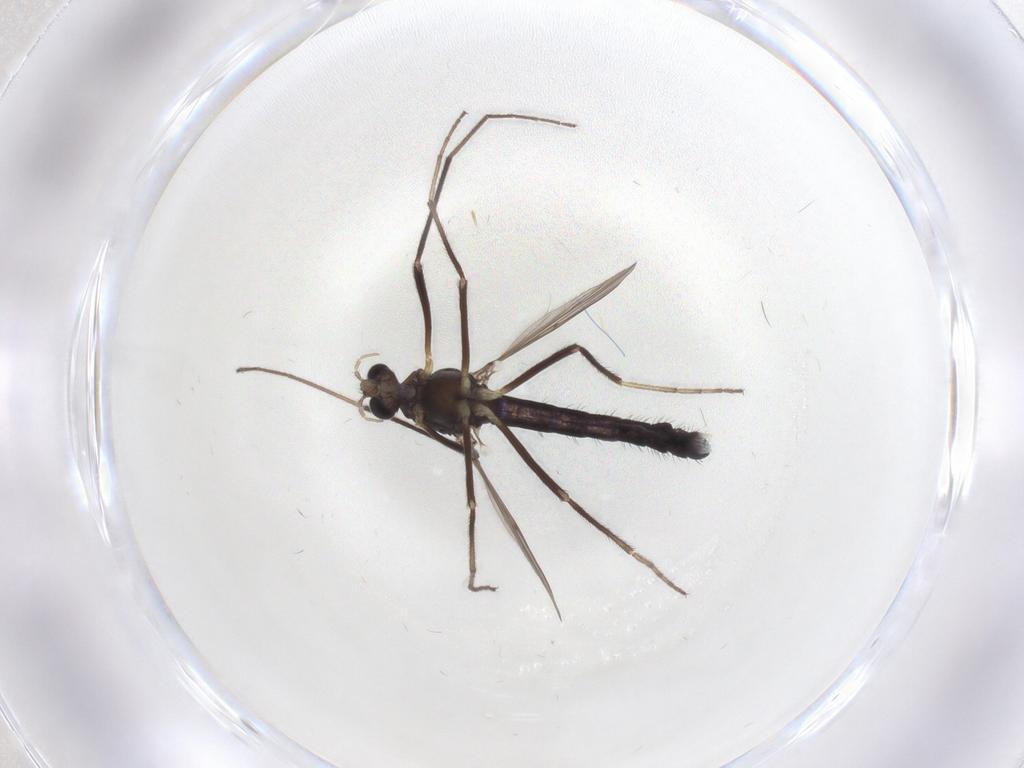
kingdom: Animalia
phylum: Arthropoda
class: Insecta
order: Diptera
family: Chironomidae
